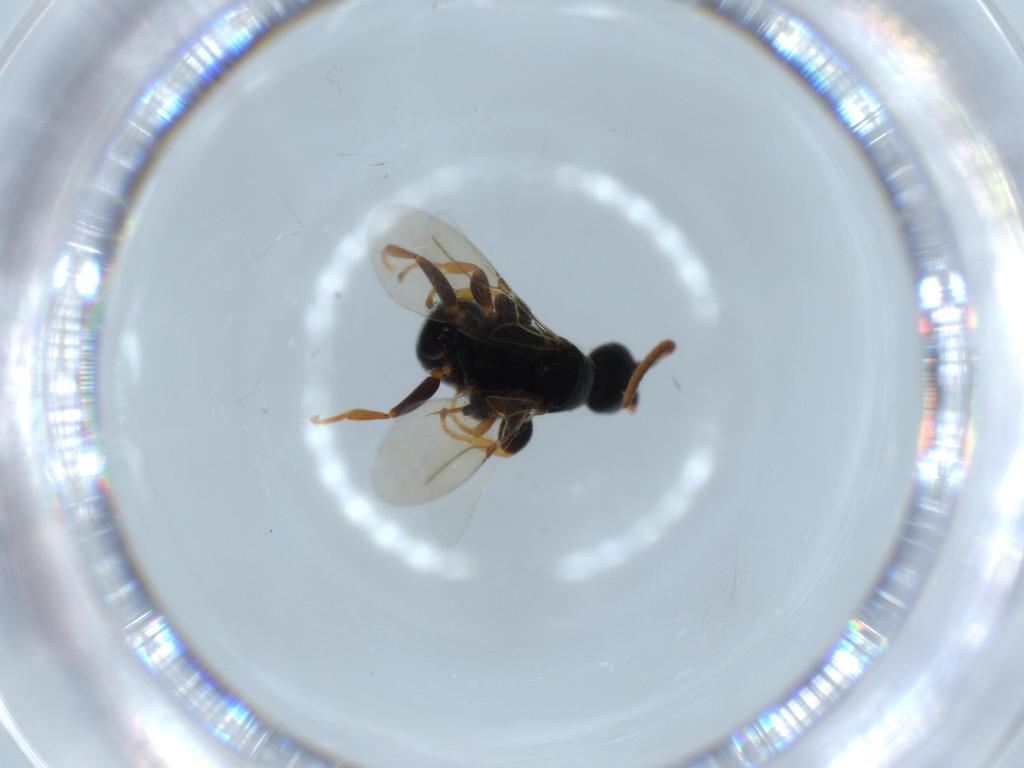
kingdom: Animalia
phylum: Arthropoda
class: Insecta
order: Hymenoptera
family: Bethylidae
